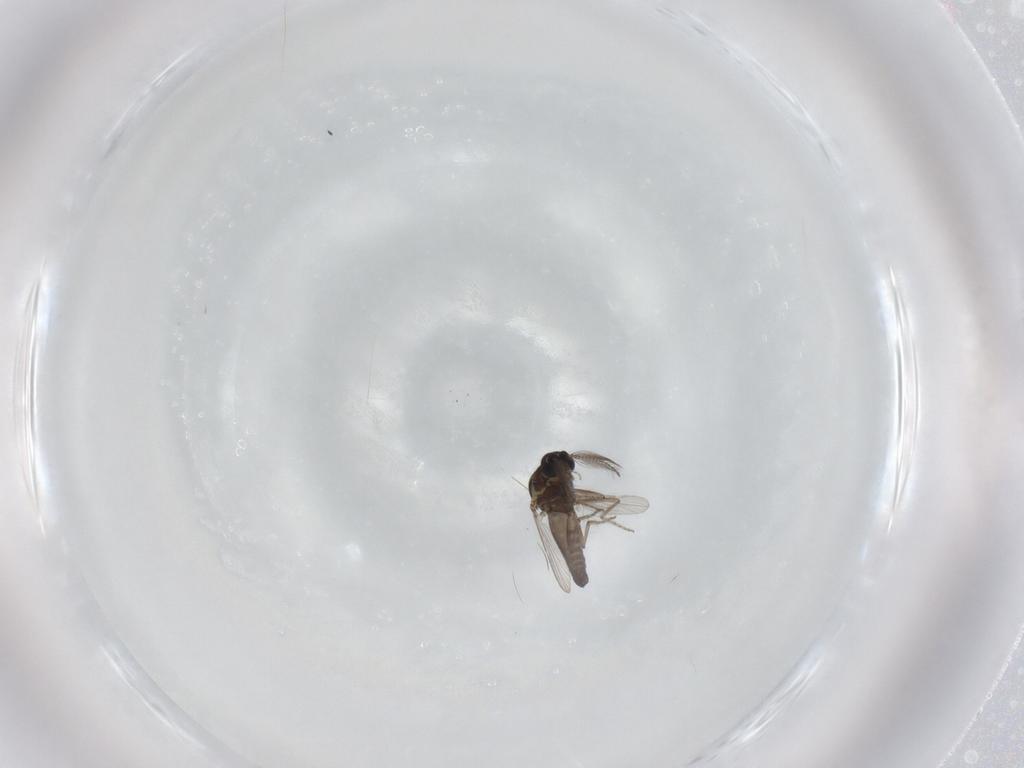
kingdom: Animalia
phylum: Arthropoda
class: Insecta
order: Diptera
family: Ceratopogonidae
